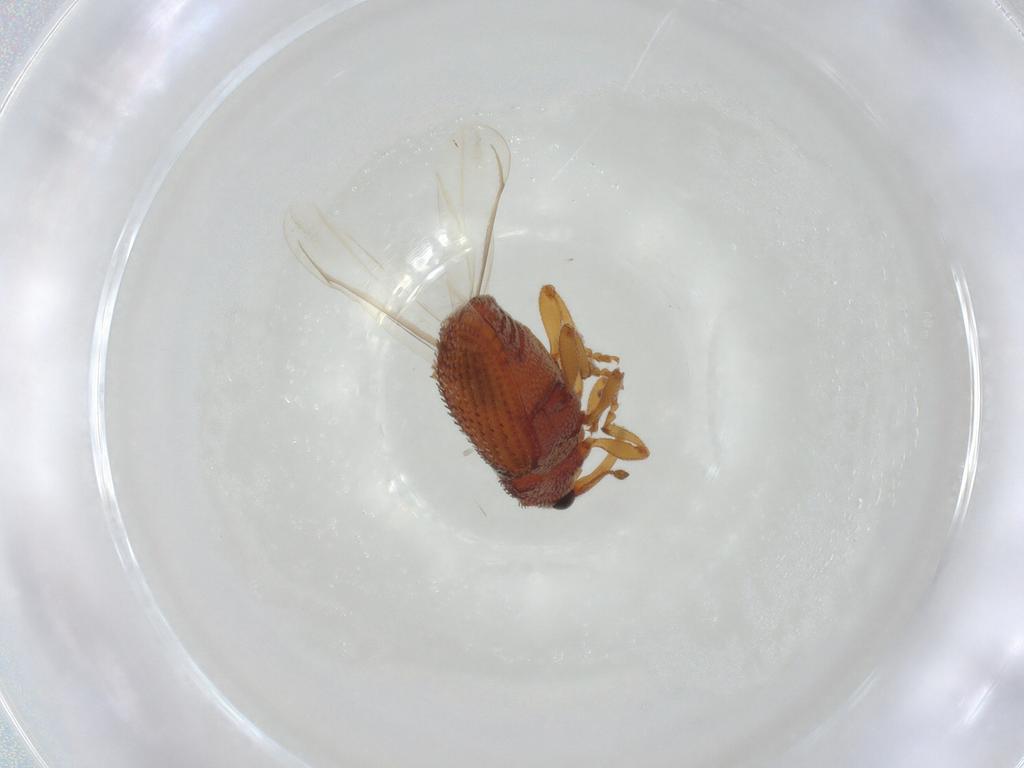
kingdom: Animalia
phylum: Arthropoda
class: Insecta
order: Coleoptera
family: Curculionidae
